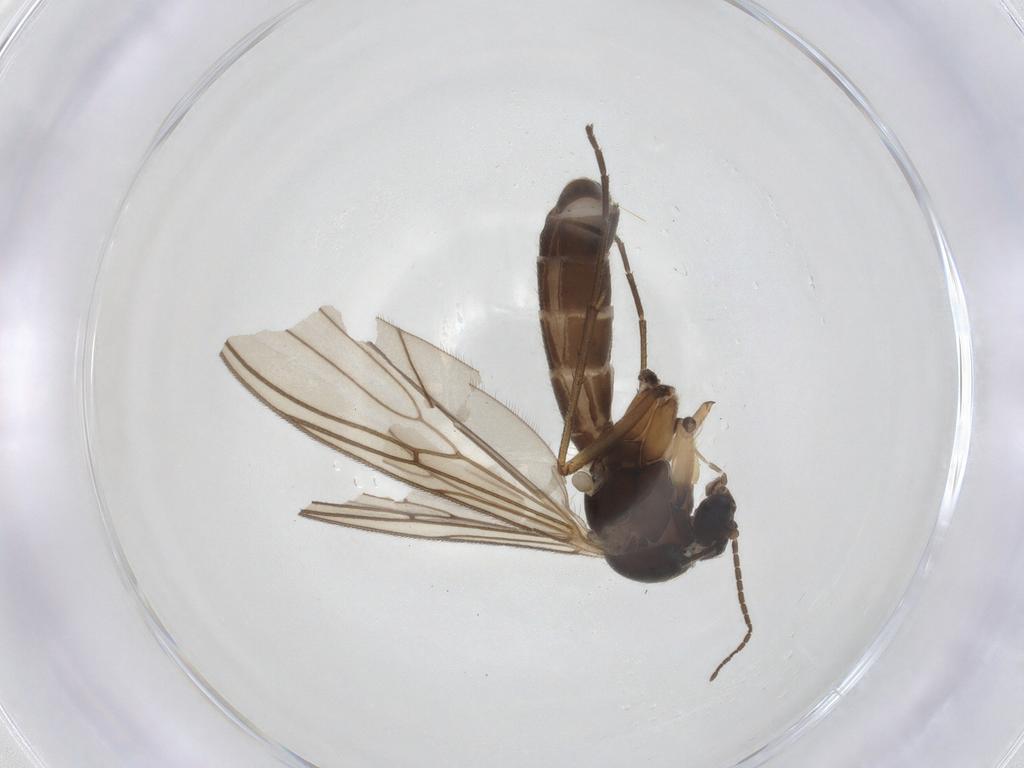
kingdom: Animalia
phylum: Arthropoda
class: Insecta
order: Diptera
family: Mycetophilidae
